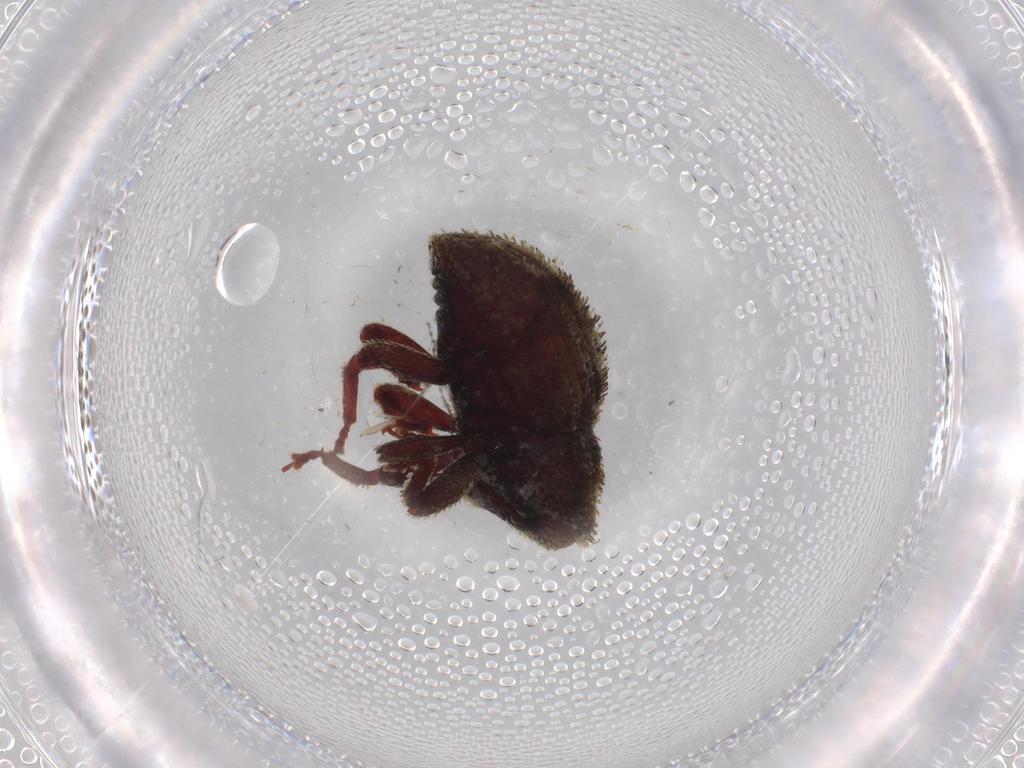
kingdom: Animalia
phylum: Arthropoda
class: Insecta
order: Coleoptera
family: Curculionidae
